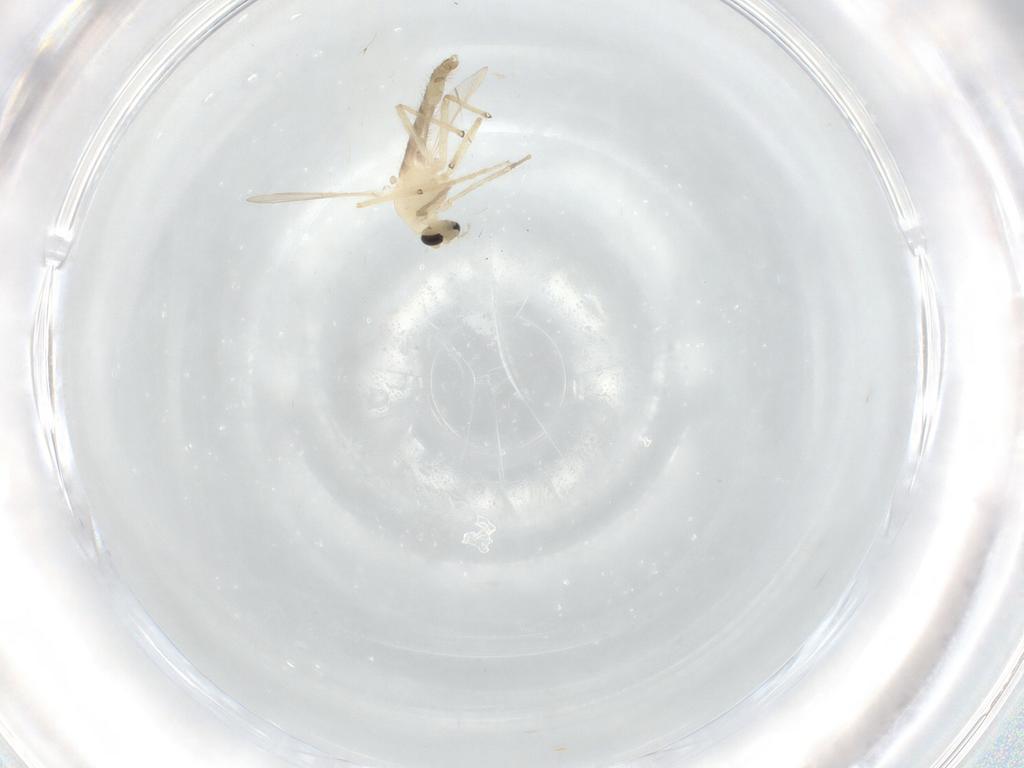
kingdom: Animalia
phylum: Arthropoda
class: Insecta
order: Diptera
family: Chironomidae
